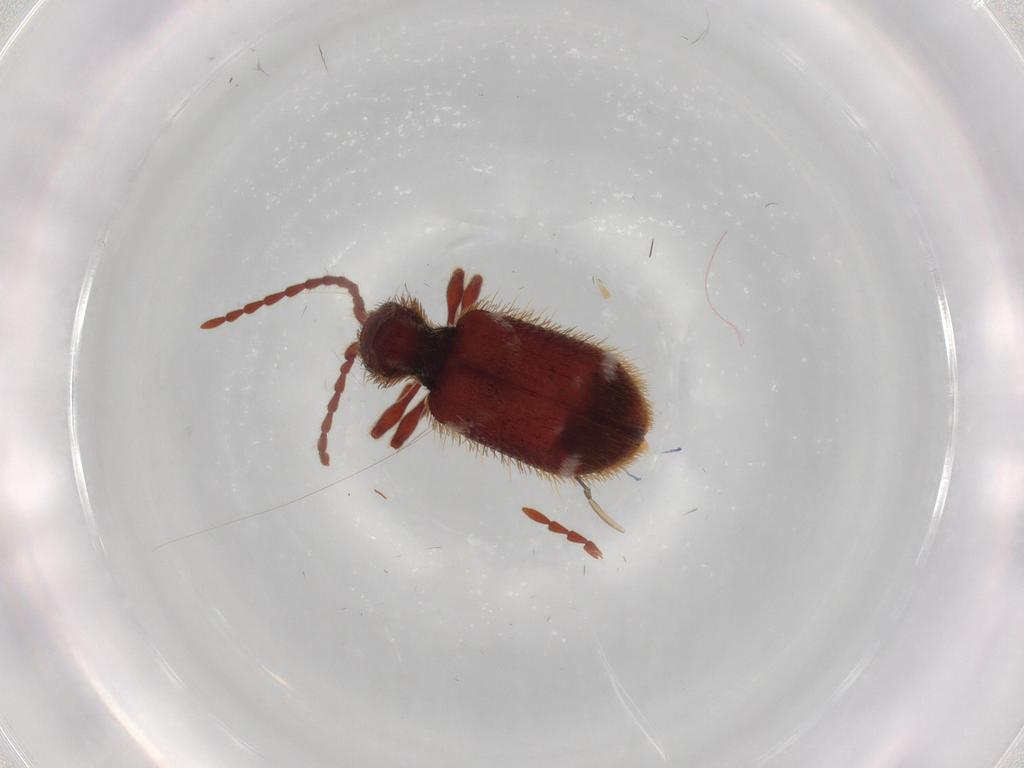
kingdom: Animalia
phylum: Arthropoda
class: Insecta
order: Coleoptera
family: Ptinidae
